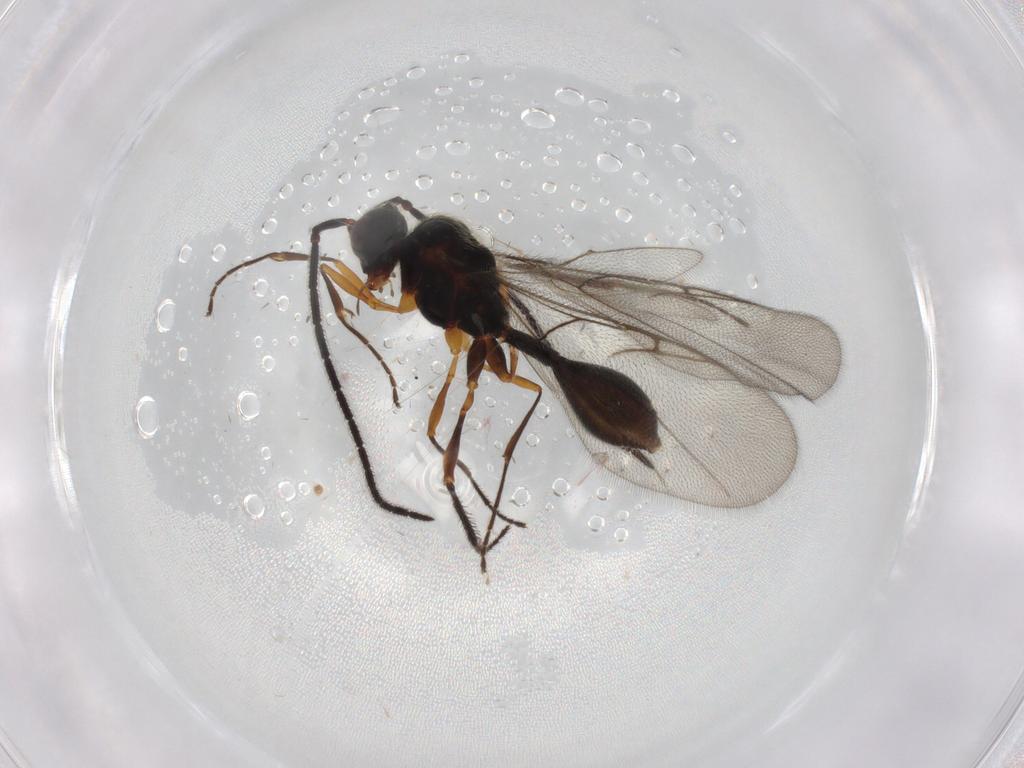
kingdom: Animalia
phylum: Arthropoda
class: Insecta
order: Hymenoptera
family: Diapriidae
